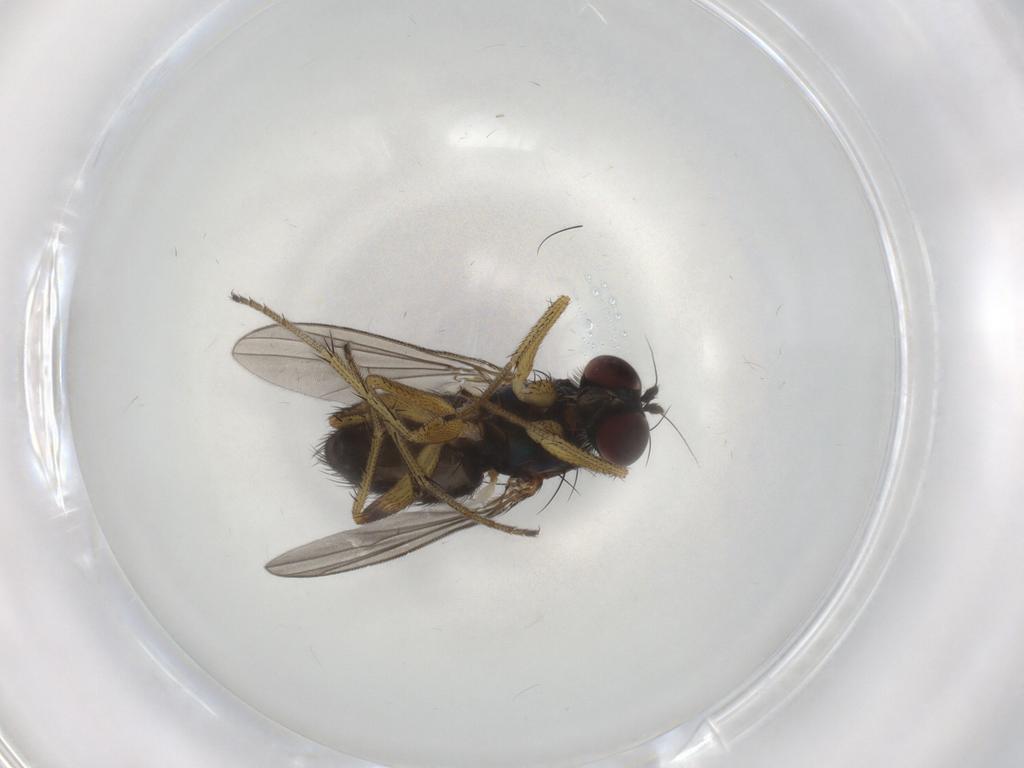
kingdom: Animalia
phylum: Arthropoda
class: Insecta
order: Diptera
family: Dolichopodidae
